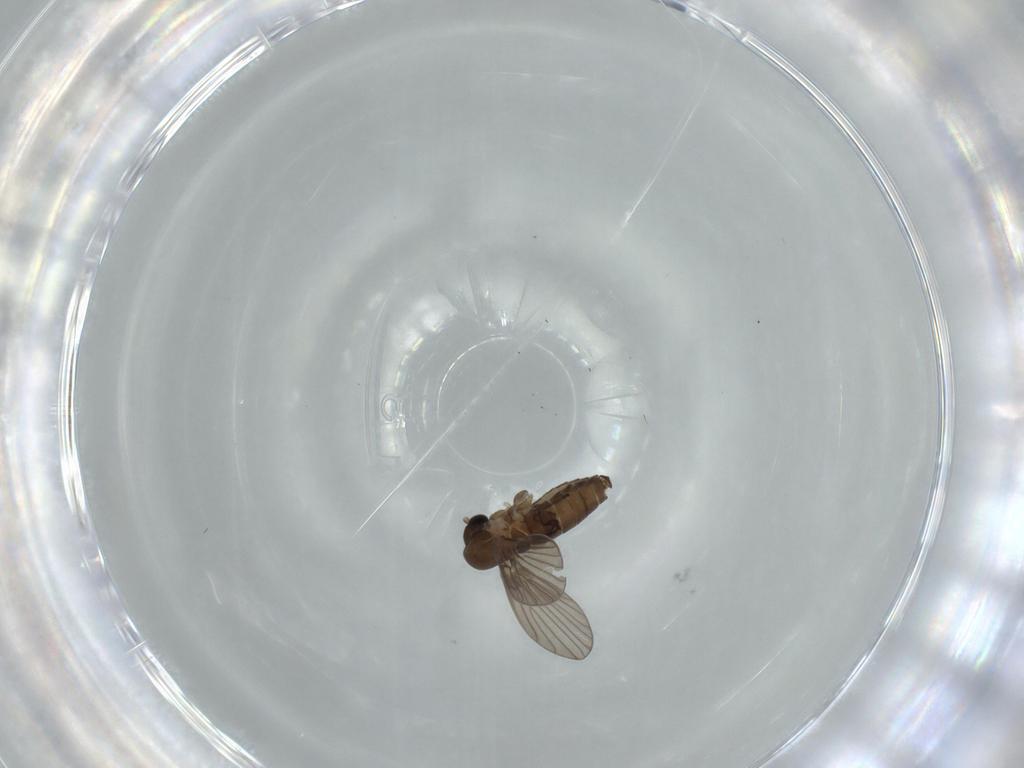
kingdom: Animalia
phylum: Arthropoda
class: Insecta
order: Diptera
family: Psychodidae
